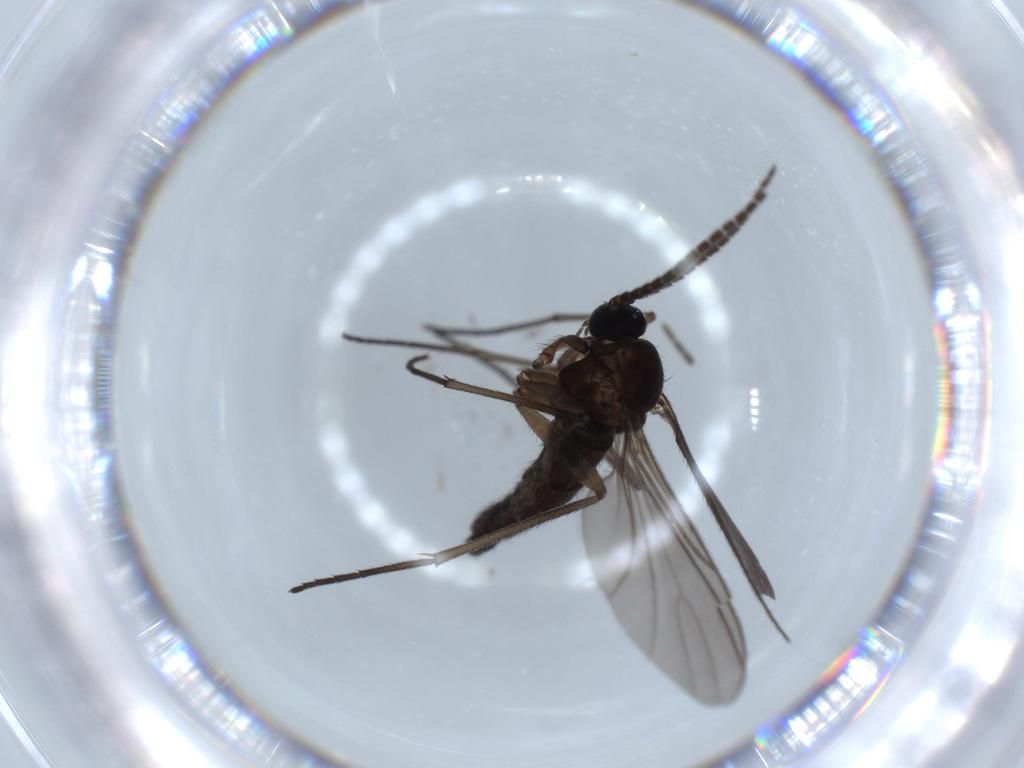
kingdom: Animalia
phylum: Arthropoda
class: Insecta
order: Diptera
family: Sciaridae
